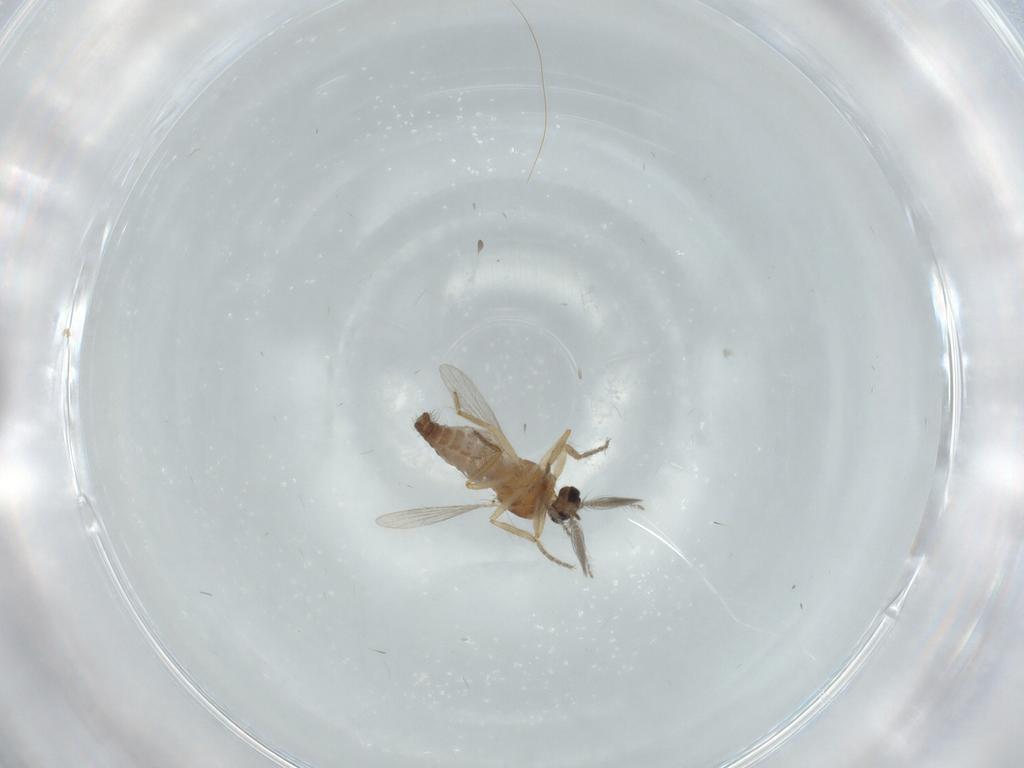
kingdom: Animalia
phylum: Arthropoda
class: Insecta
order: Diptera
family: Ceratopogonidae
